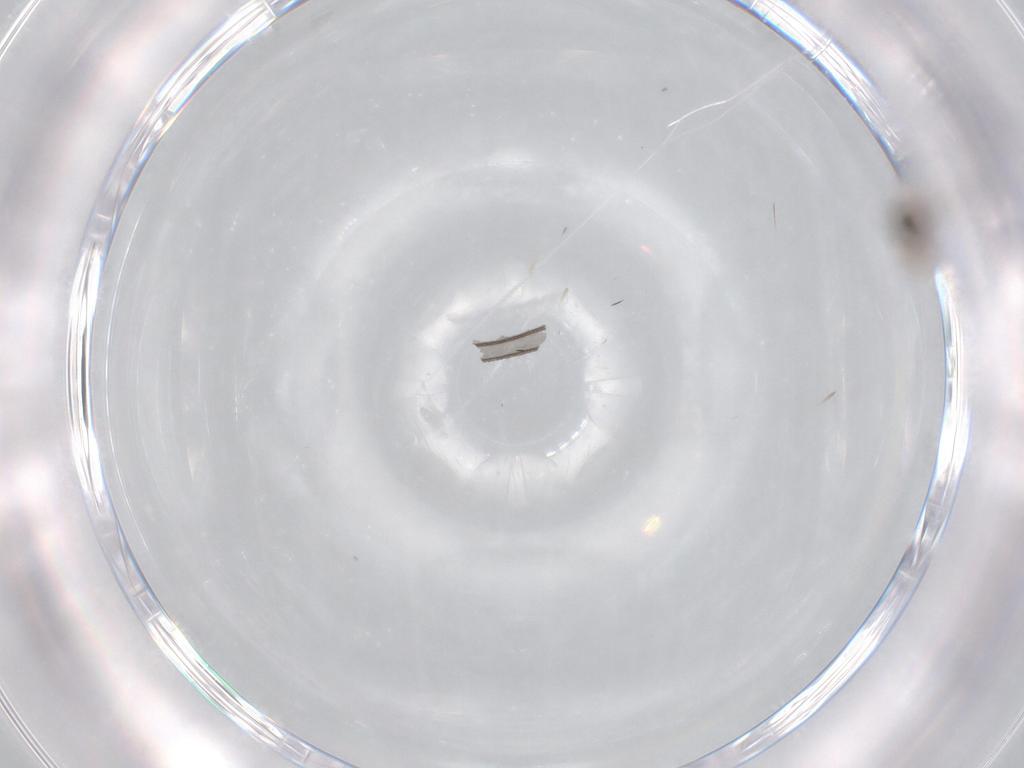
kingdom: Animalia
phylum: Arthropoda
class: Insecta
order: Diptera
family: Cecidomyiidae
